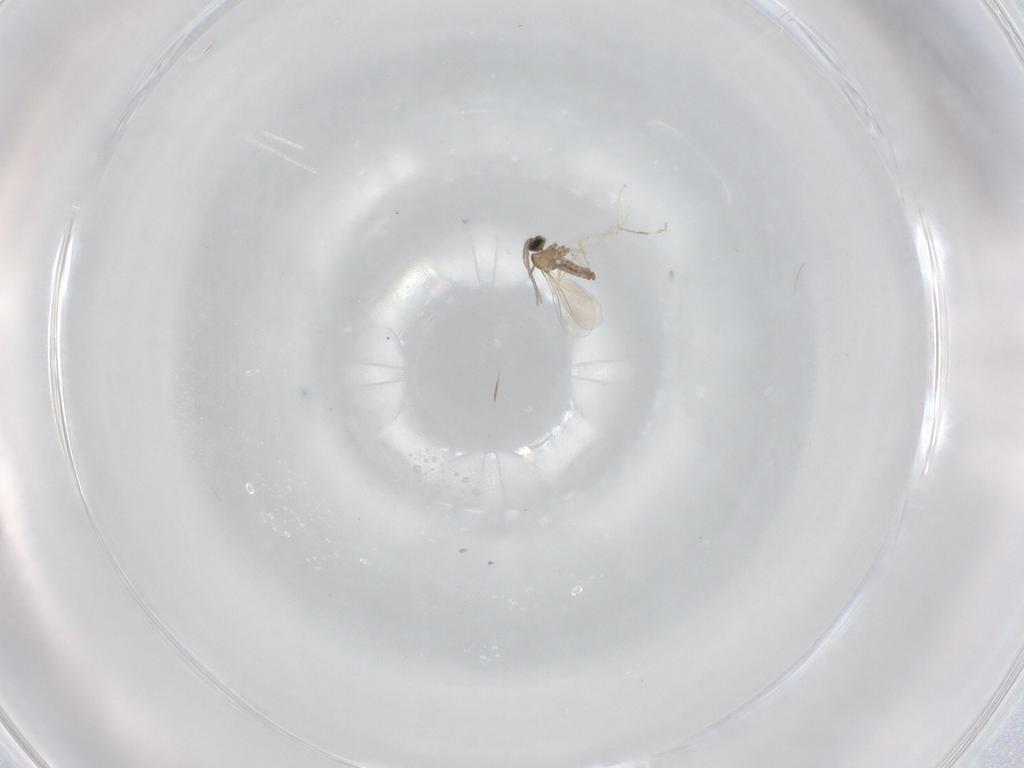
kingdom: Animalia
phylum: Arthropoda
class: Insecta
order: Diptera
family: Cecidomyiidae
